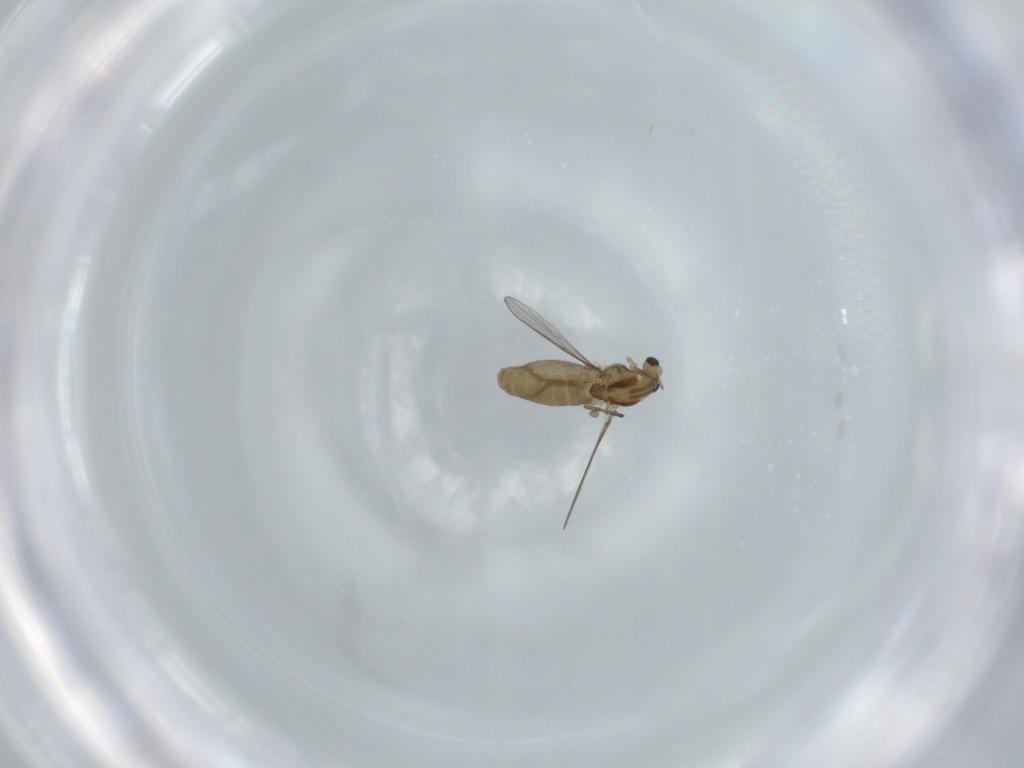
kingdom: Animalia
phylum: Arthropoda
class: Insecta
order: Diptera
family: Chironomidae
